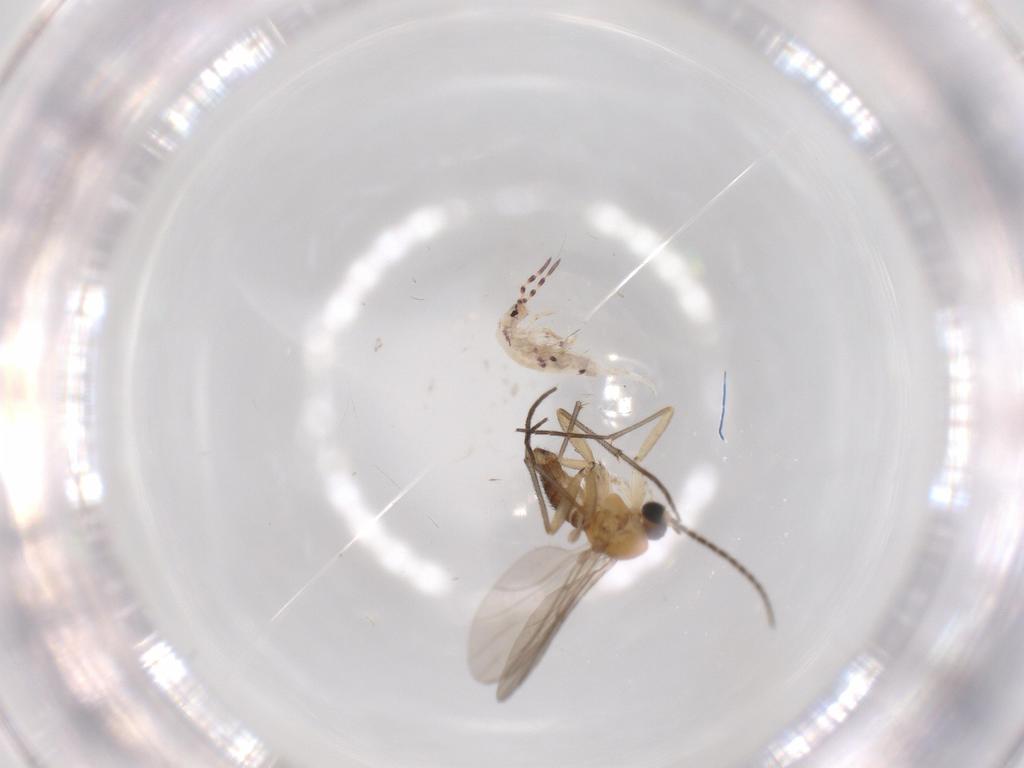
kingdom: Animalia
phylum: Arthropoda
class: Collembola
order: Entomobryomorpha
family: Entomobryidae
